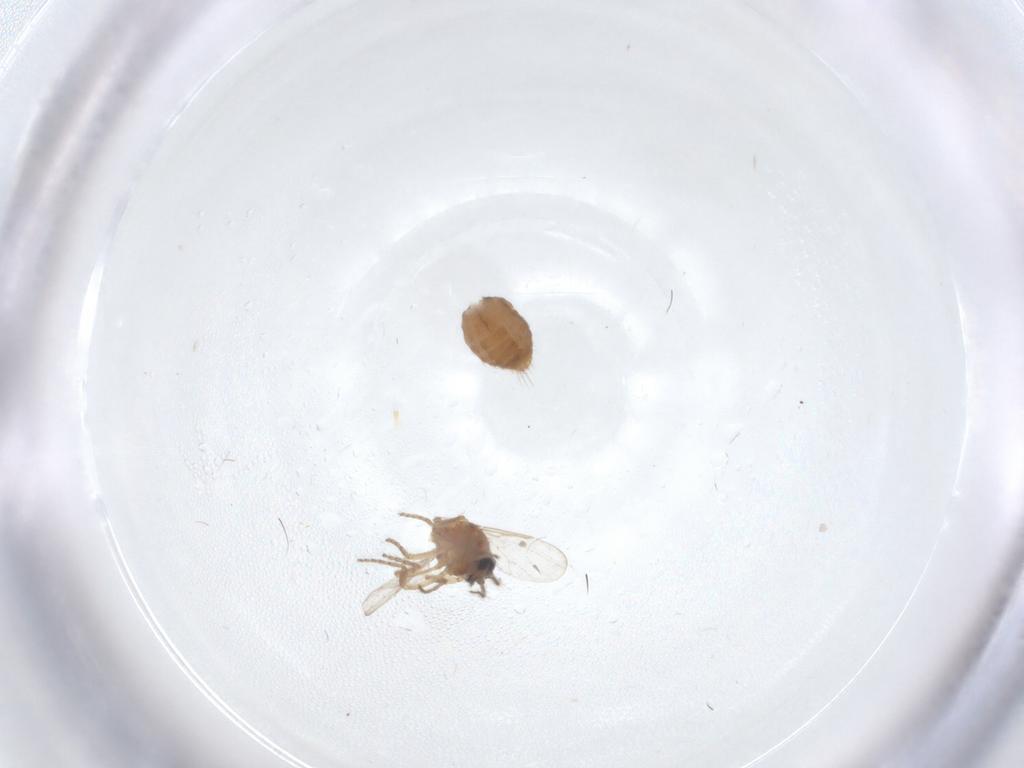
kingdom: Animalia
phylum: Arthropoda
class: Insecta
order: Diptera
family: Ceratopogonidae
